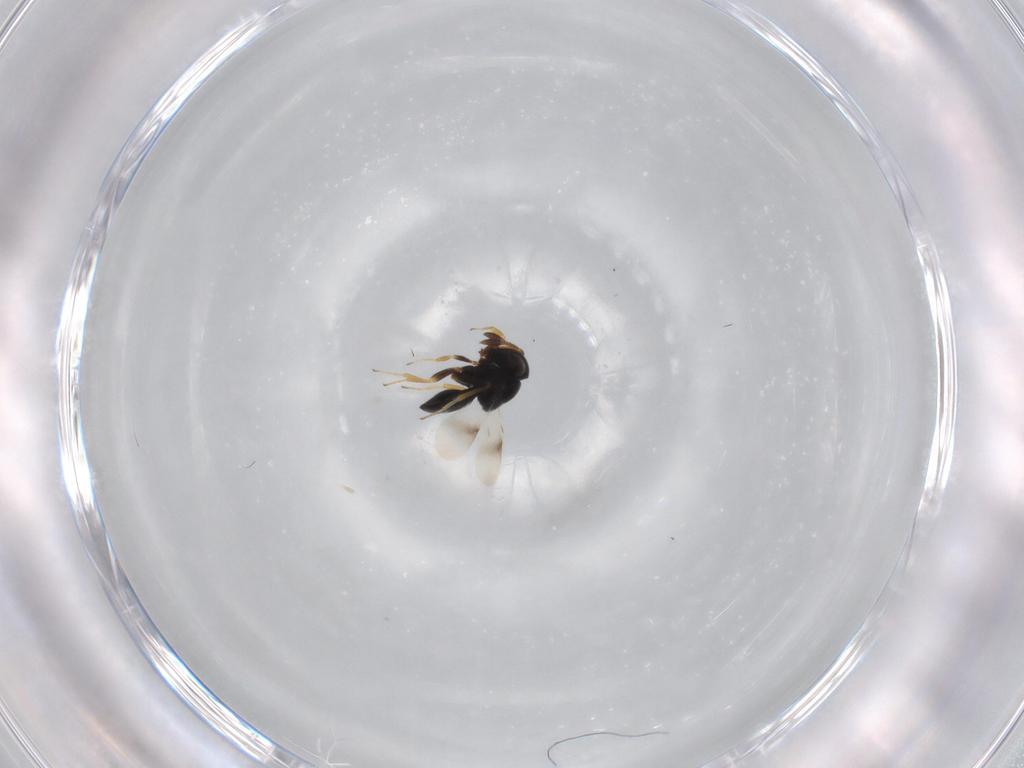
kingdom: Animalia
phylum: Arthropoda
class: Insecta
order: Hymenoptera
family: Scelionidae
